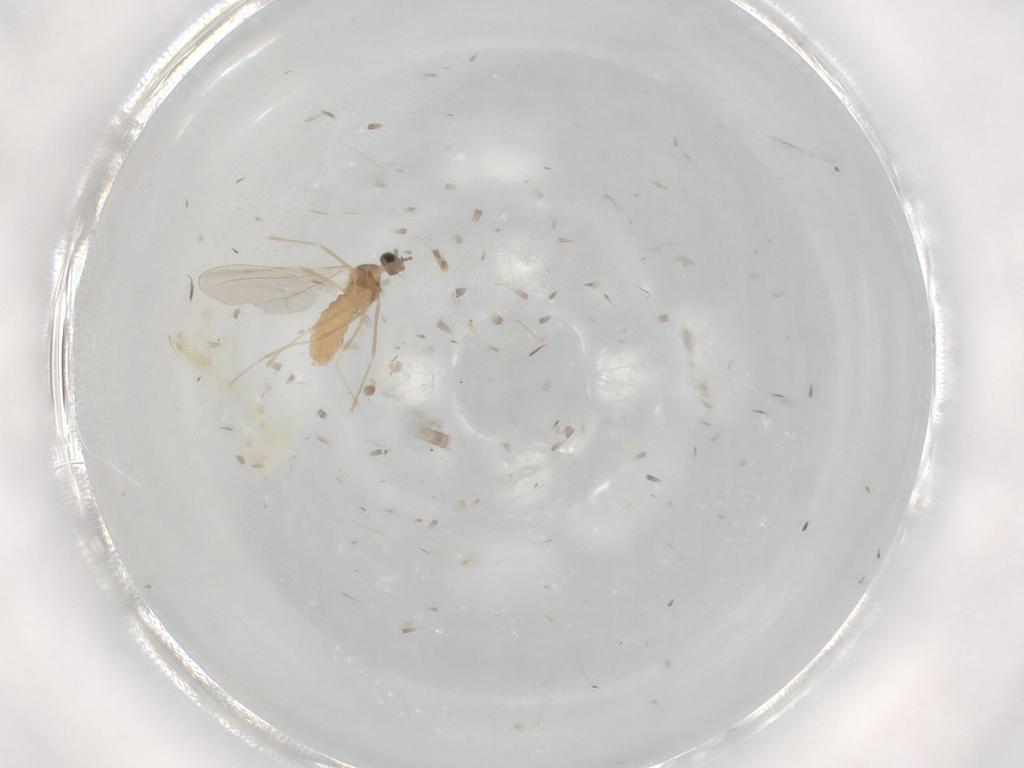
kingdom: Animalia
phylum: Arthropoda
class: Insecta
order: Diptera
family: Cecidomyiidae
